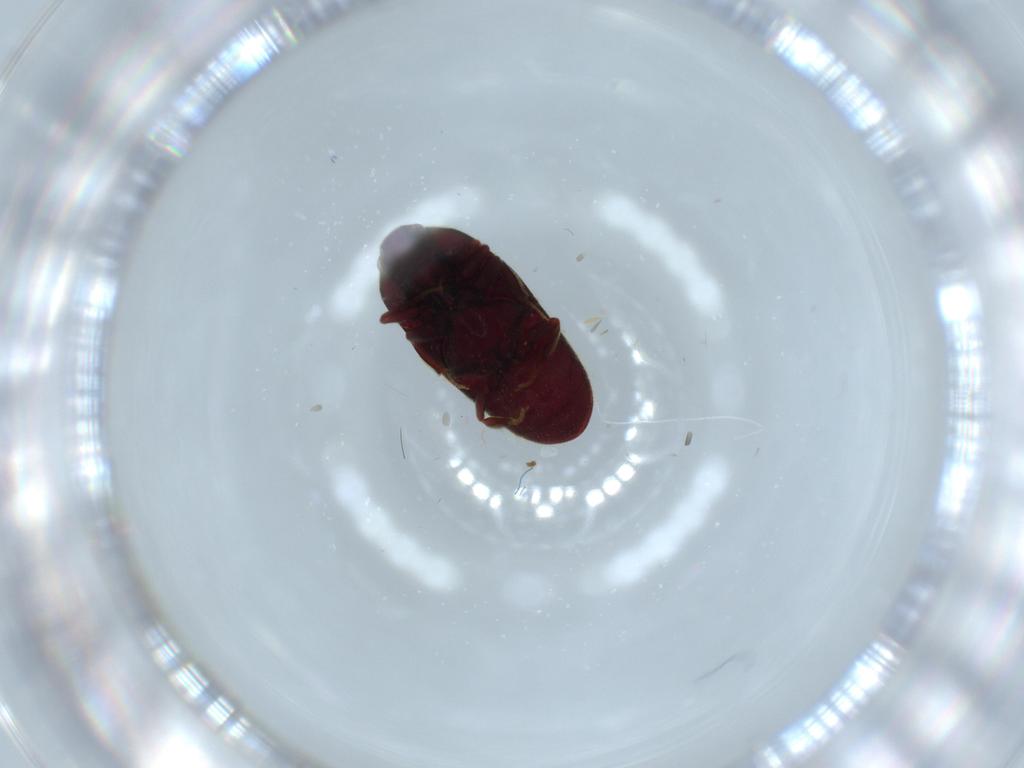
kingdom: Animalia
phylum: Arthropoda
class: Insecta
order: Coleoptera
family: Throscidae
